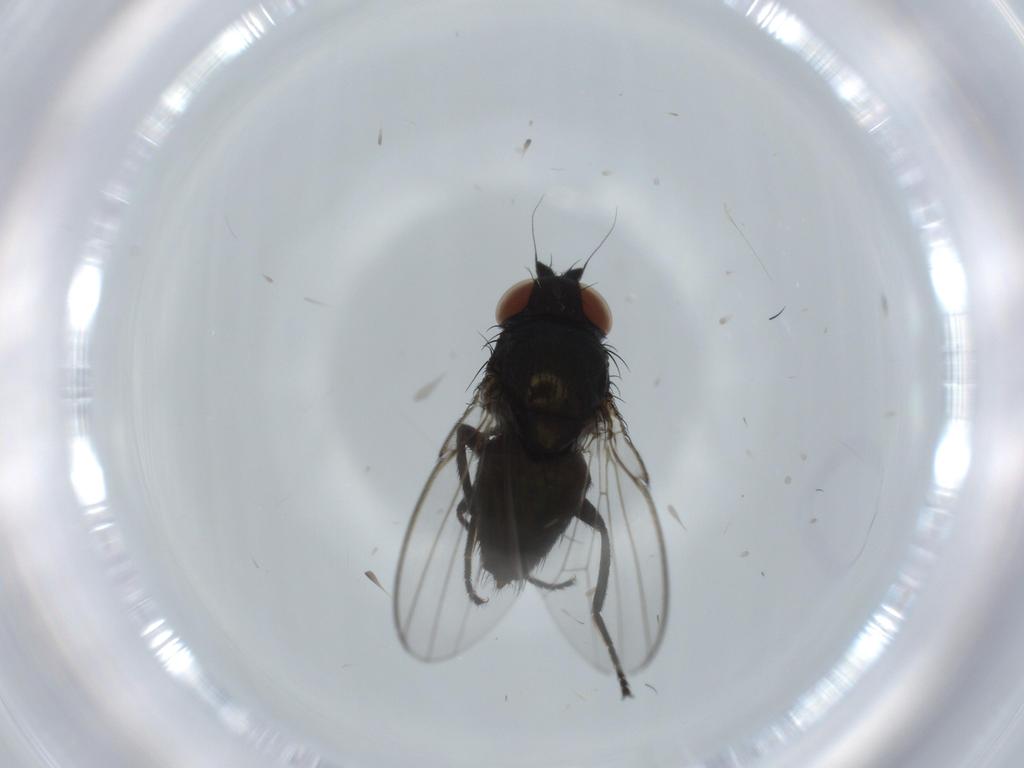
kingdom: Animalia
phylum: Arthropoda
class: Insecta
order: Diptera
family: Milichiidae
